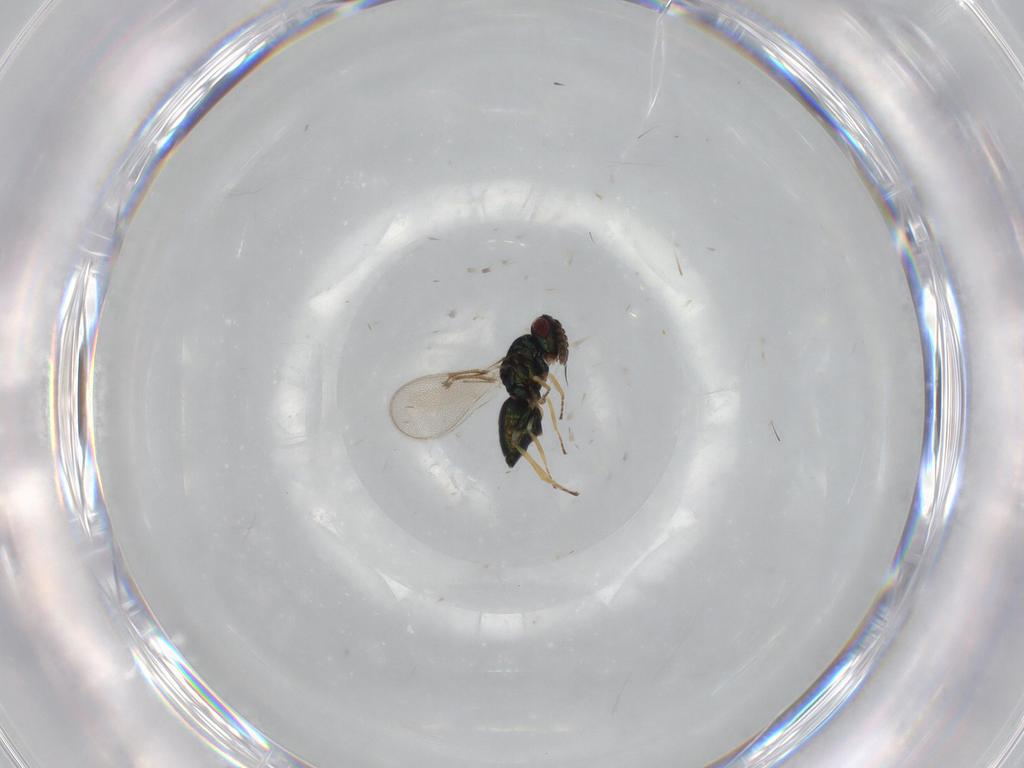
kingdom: Animalia
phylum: Arthropoda
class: Insecta
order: Hymenoptera
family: Eulophidae
